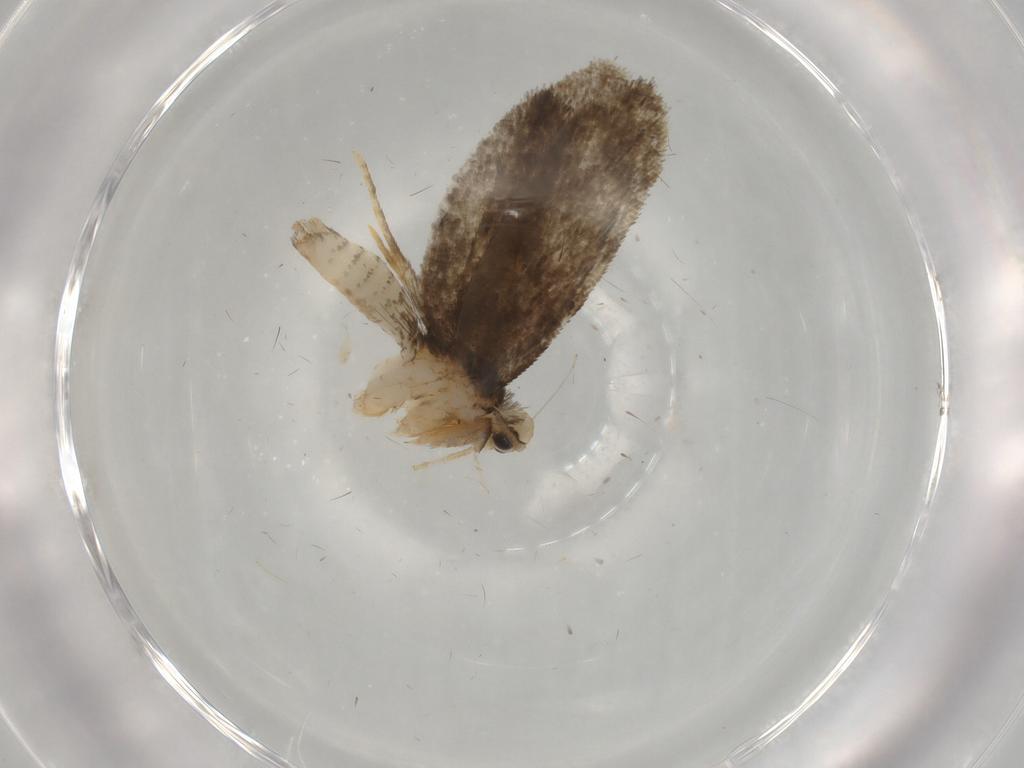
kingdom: Animalia
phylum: Arthropoda
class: Insecta
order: Lepidoptera
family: Psychidae
